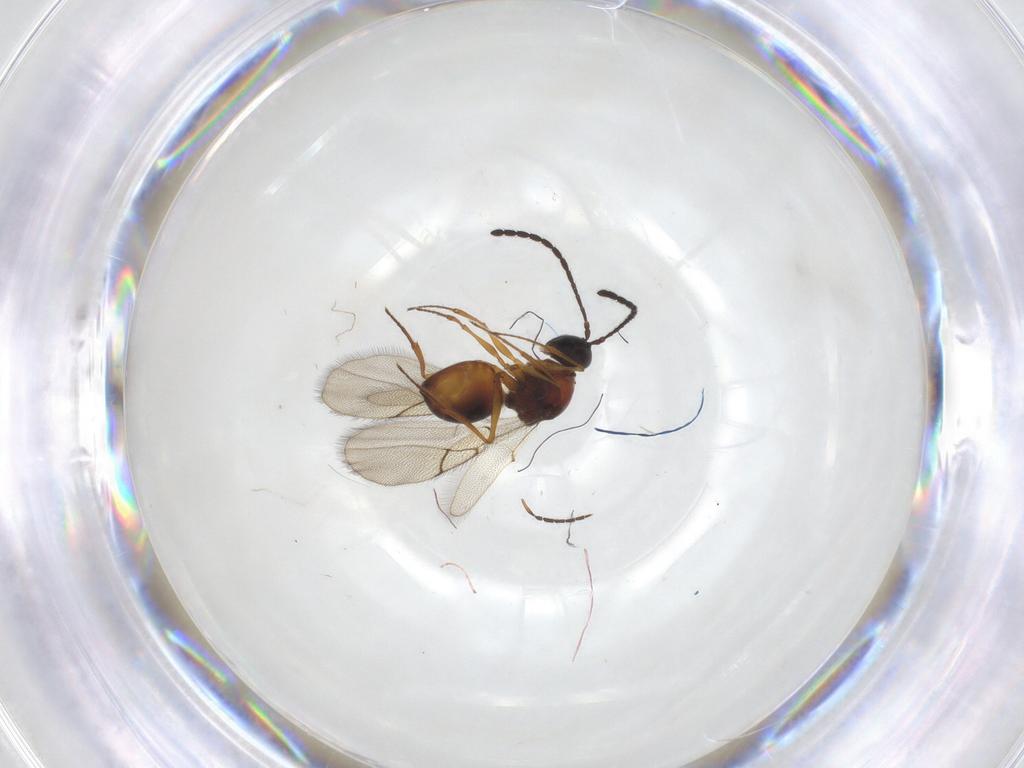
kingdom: Animalia
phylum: Arthropoda
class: Insecta
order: Hymenoptera
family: Figitidae
